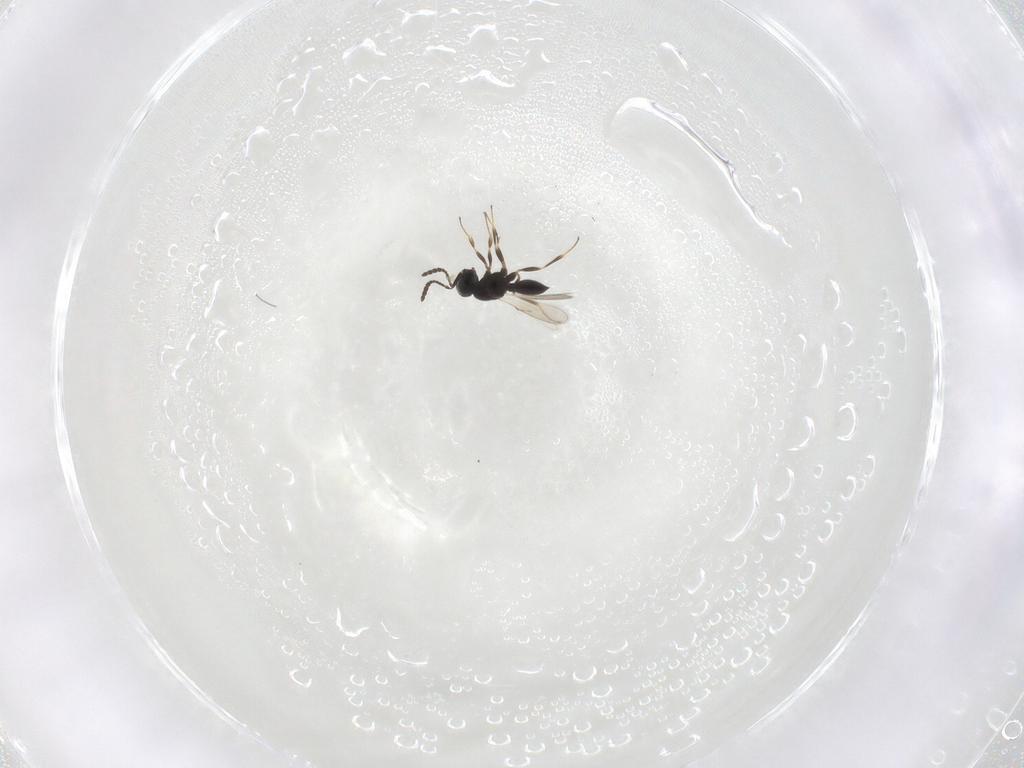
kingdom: Animalia
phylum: Arthropoda
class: Insecta
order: Hymenoptera
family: Scelionidae
